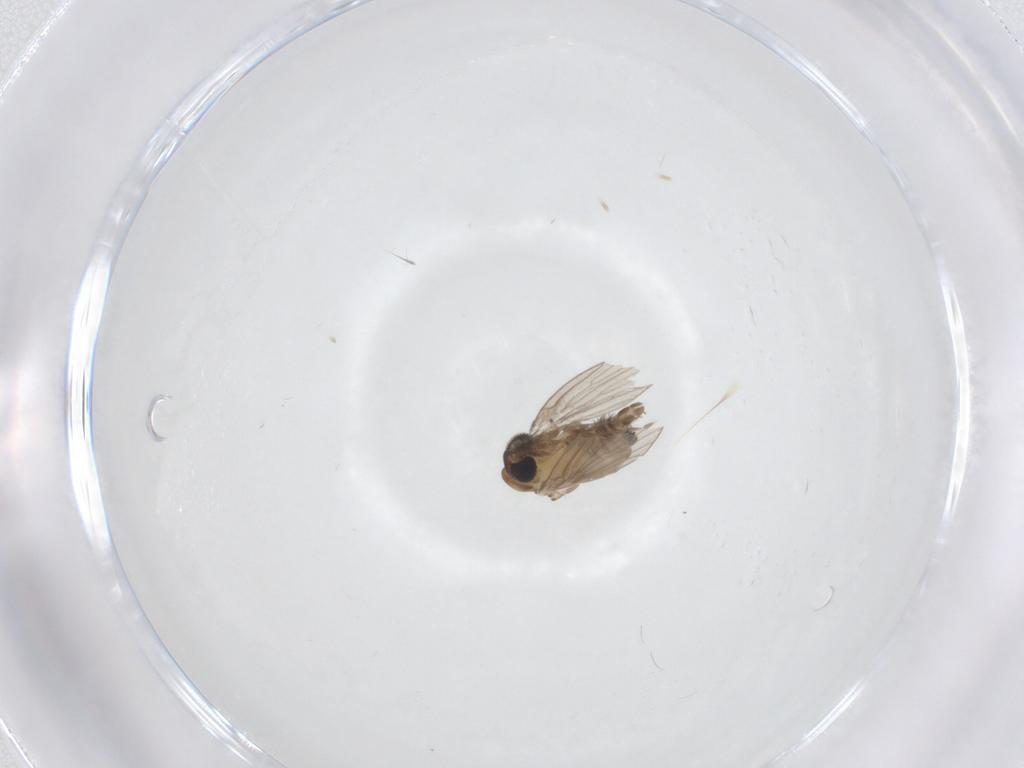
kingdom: Animalia
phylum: Arthropoda
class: Insecta
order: Diptera
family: Psychodidae
